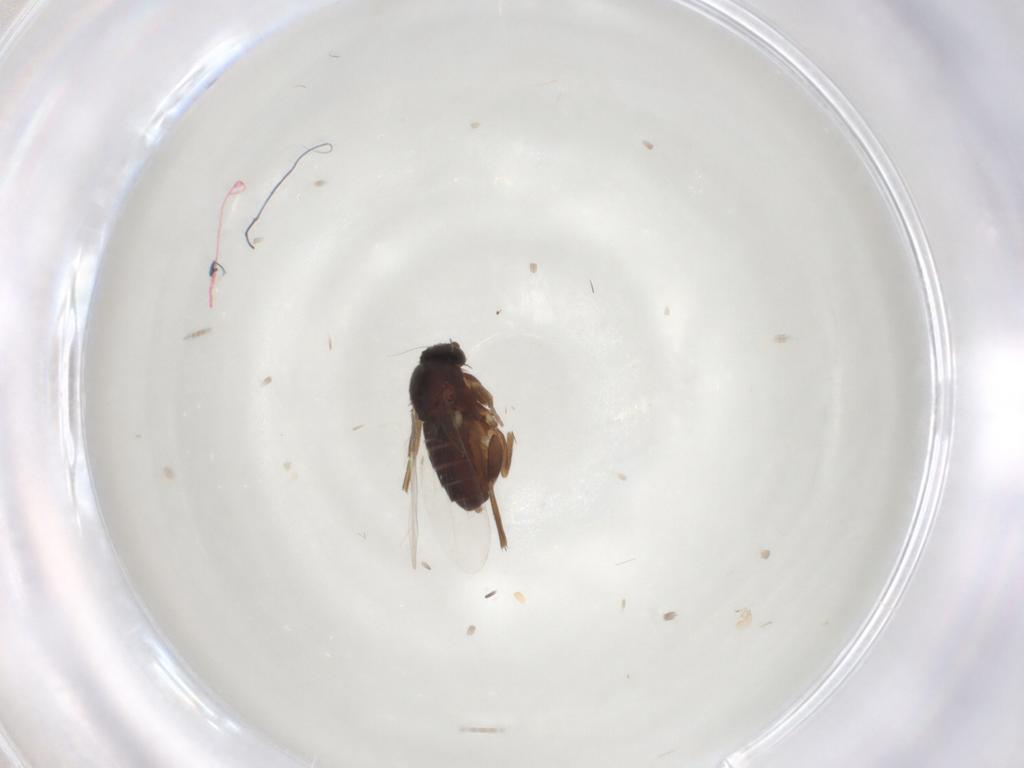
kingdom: Animalia
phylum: Arthropoda
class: Insecta
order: Diptera
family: Phoridae
